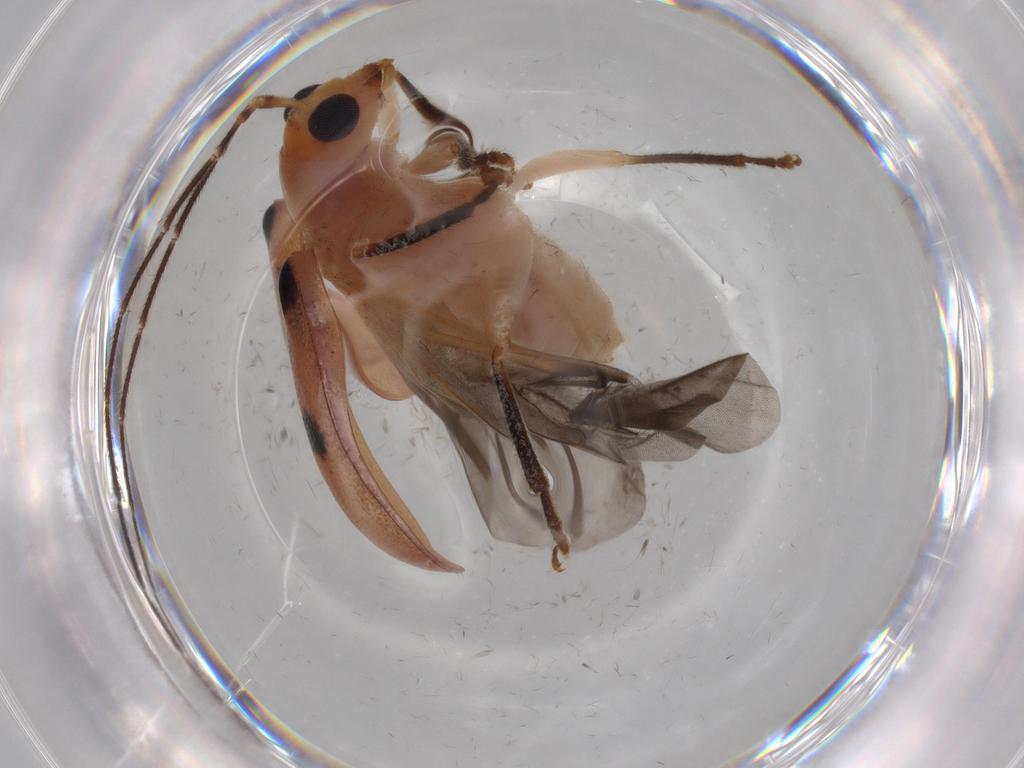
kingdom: Animalia
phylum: Arthropoda
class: Insecta
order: Coleoptera
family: Chrysomelidae
